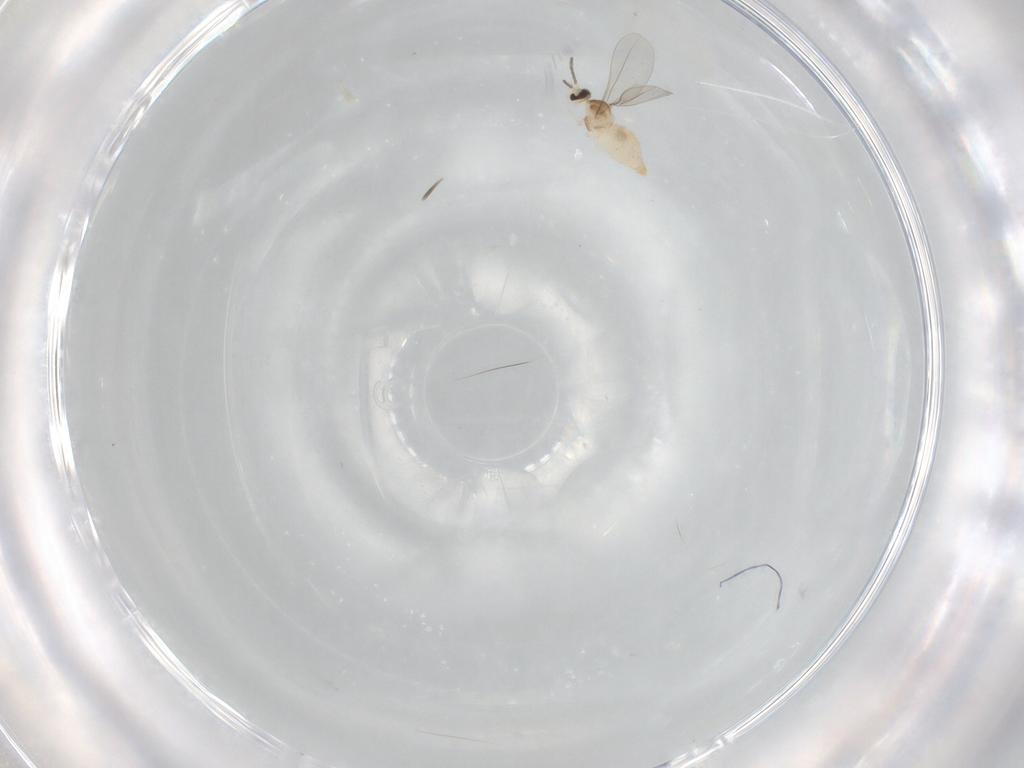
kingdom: Animalia
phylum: Arthropoda
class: Insecta
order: Diptera
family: Cecidomyiidae
